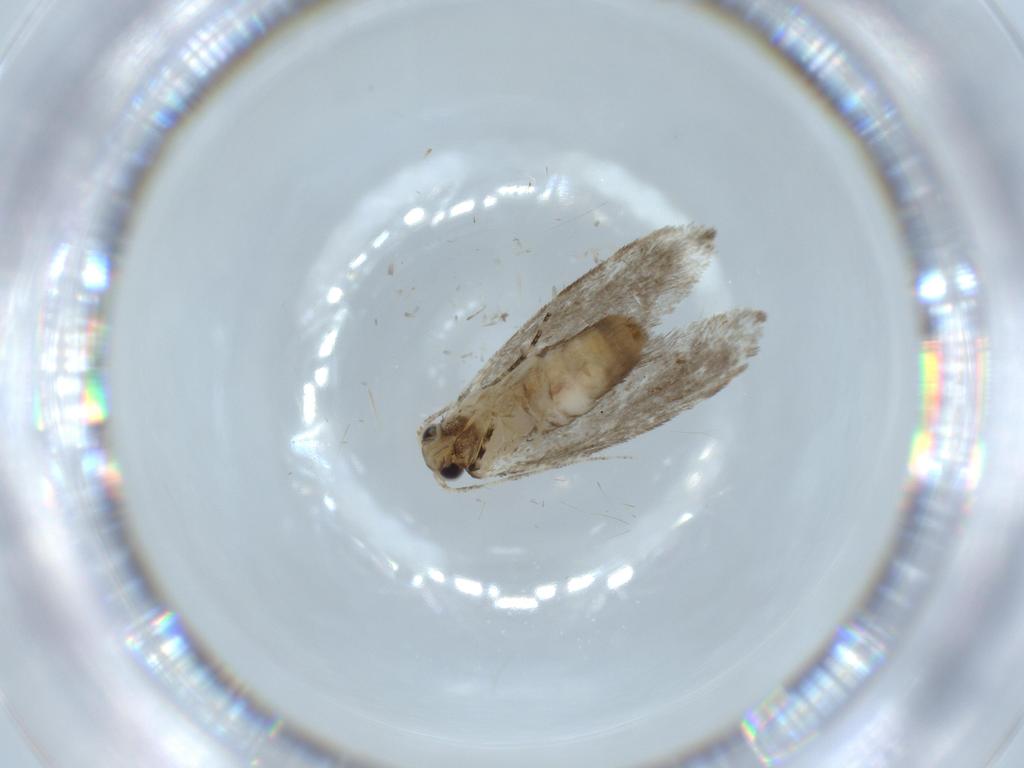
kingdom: Animalia
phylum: Arthropoda
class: Insecta
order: Lepidoptera
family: Tineidae
